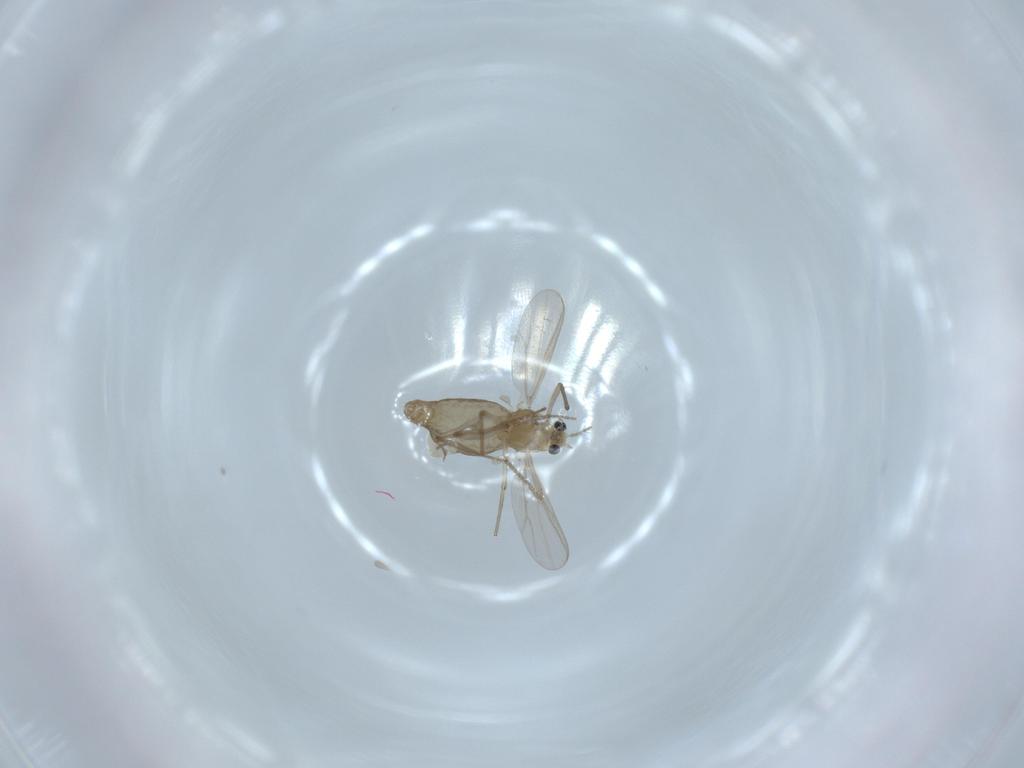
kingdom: Animalia
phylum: Arthropoda
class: Insecta
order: Diptera
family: Chironomidae
